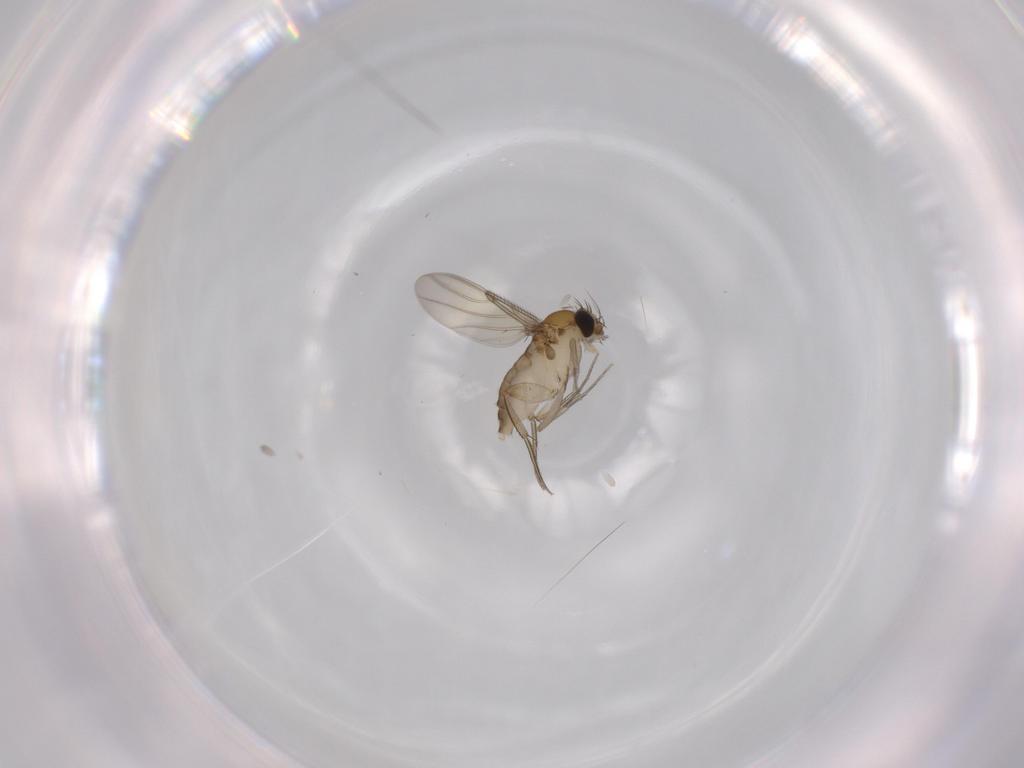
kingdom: Animalia
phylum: Arthropoda
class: Insecta
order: Diptera
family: Phoridae
